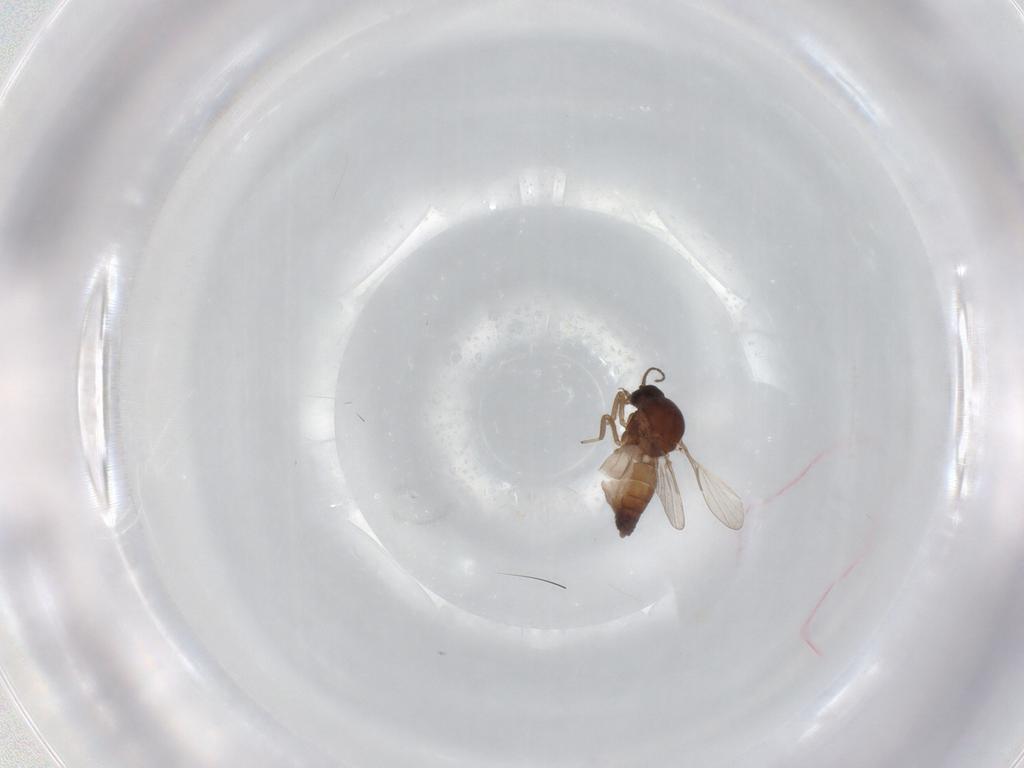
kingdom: Animalia
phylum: Arthropoda
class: Insecta
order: Diptera
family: Ceratopogonidae
